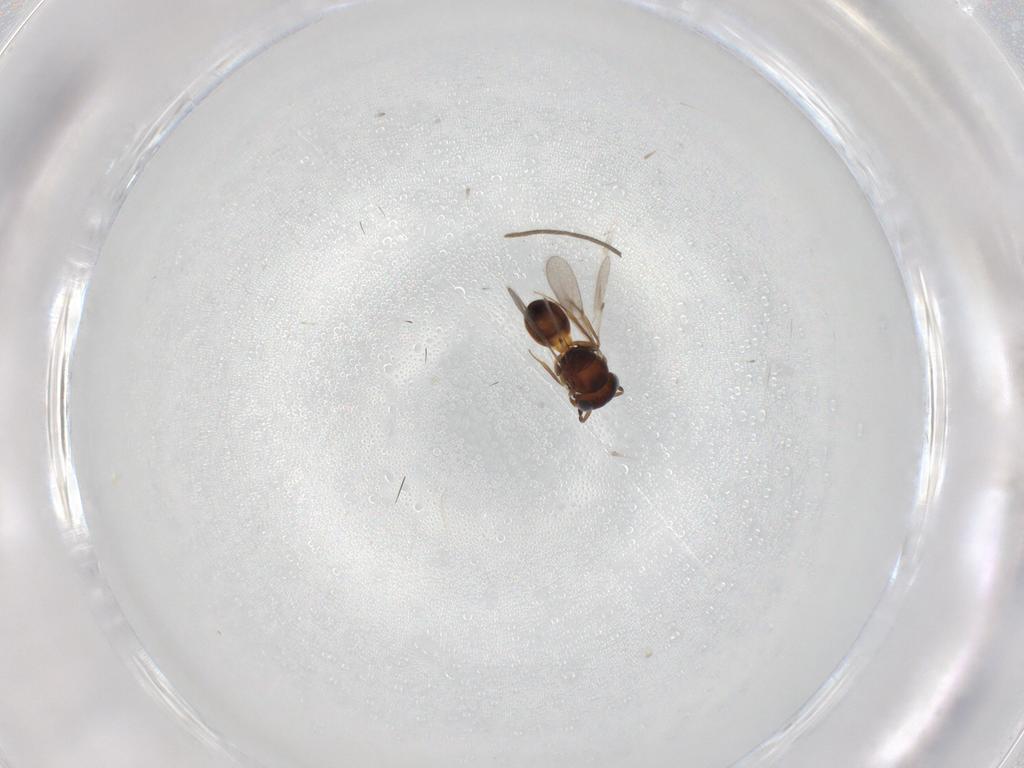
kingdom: Animalia
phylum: Arthropoda
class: Insecta
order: Hymenoptera
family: Scelionidae
